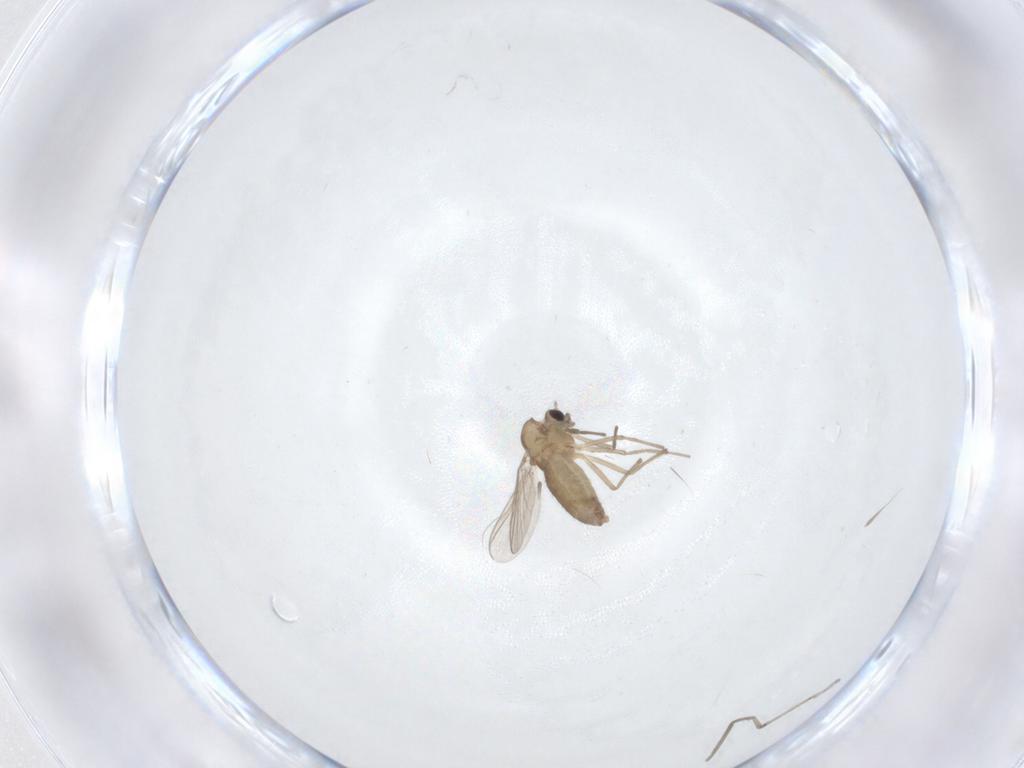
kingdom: Animalia
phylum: Arthropoda
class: Insecta
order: Diptera
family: Chironomidae
